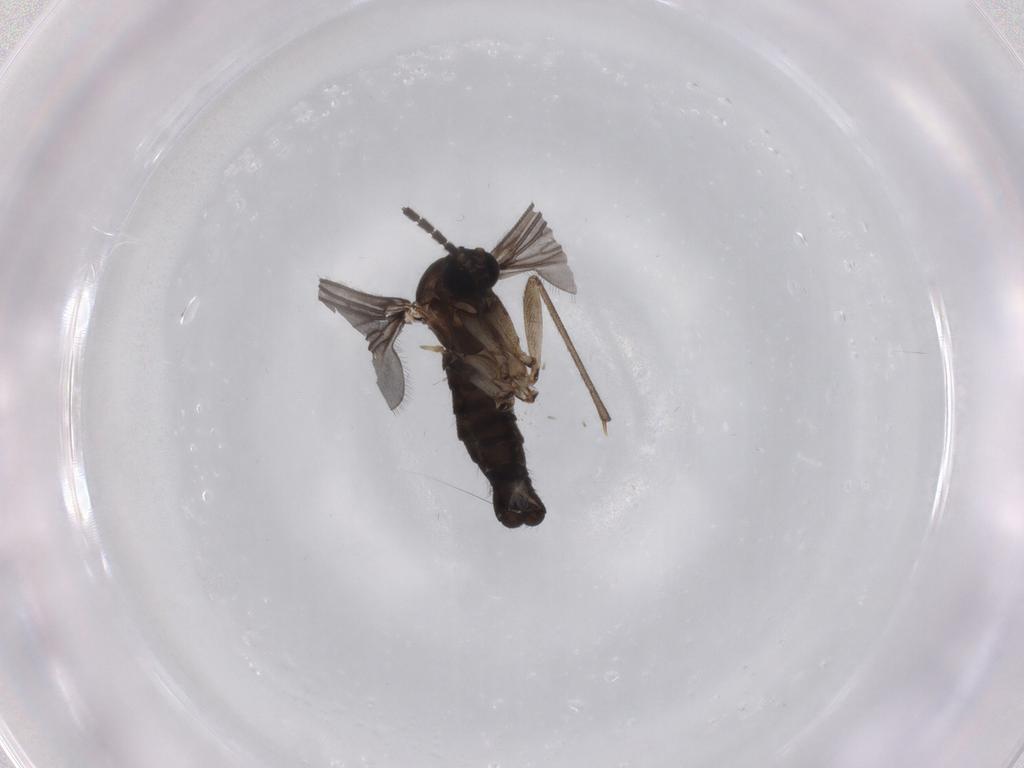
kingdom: Animalia
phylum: Arthropoda
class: Insecta
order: Diptera
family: Sciaridae
